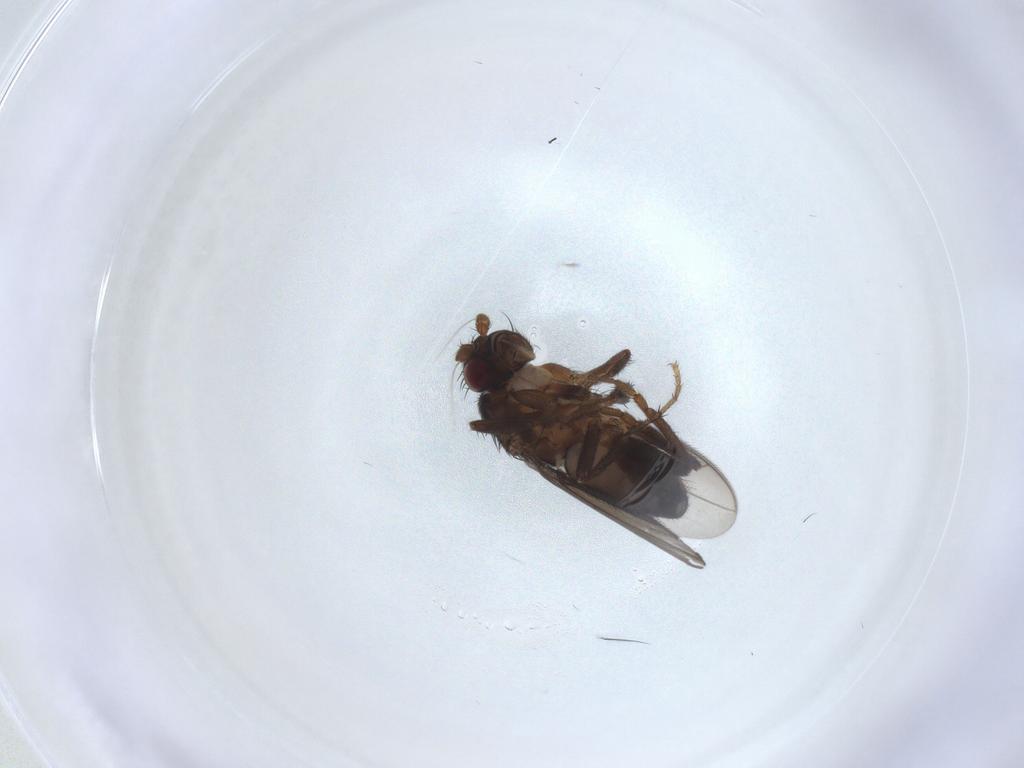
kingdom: Animalia
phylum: Arthropoda
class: Insecta
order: Diptera
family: Sphaeroceridae
